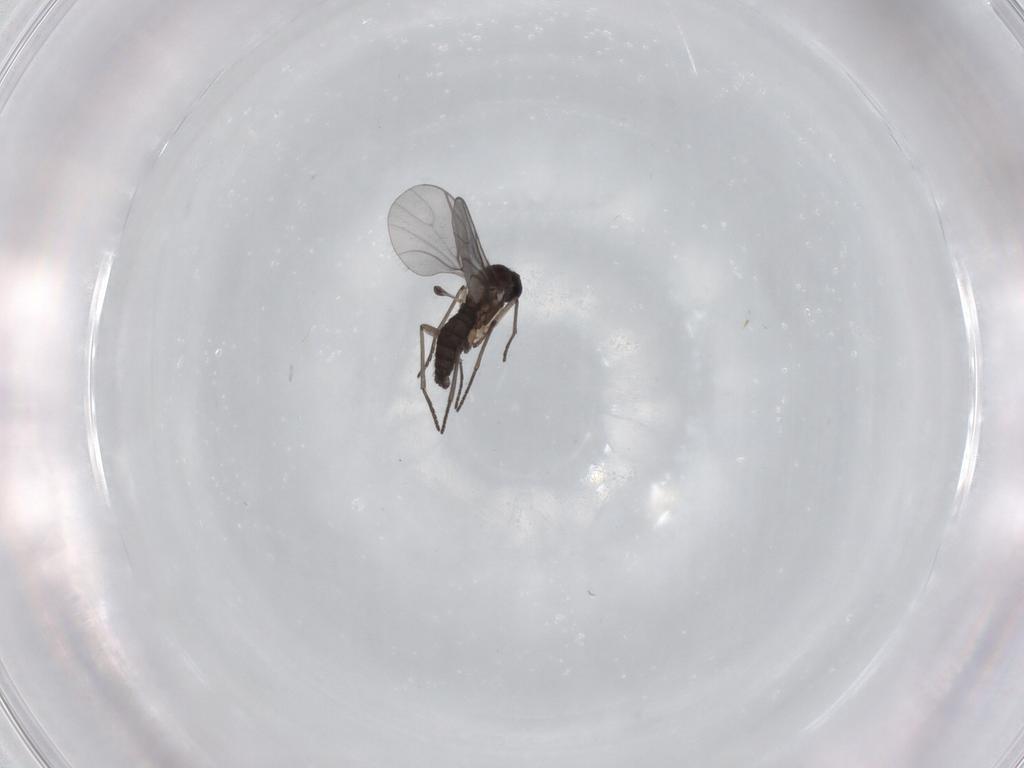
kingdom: Animalia
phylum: Arthropoda
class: Insecta
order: Diptera
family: Sciaridae
